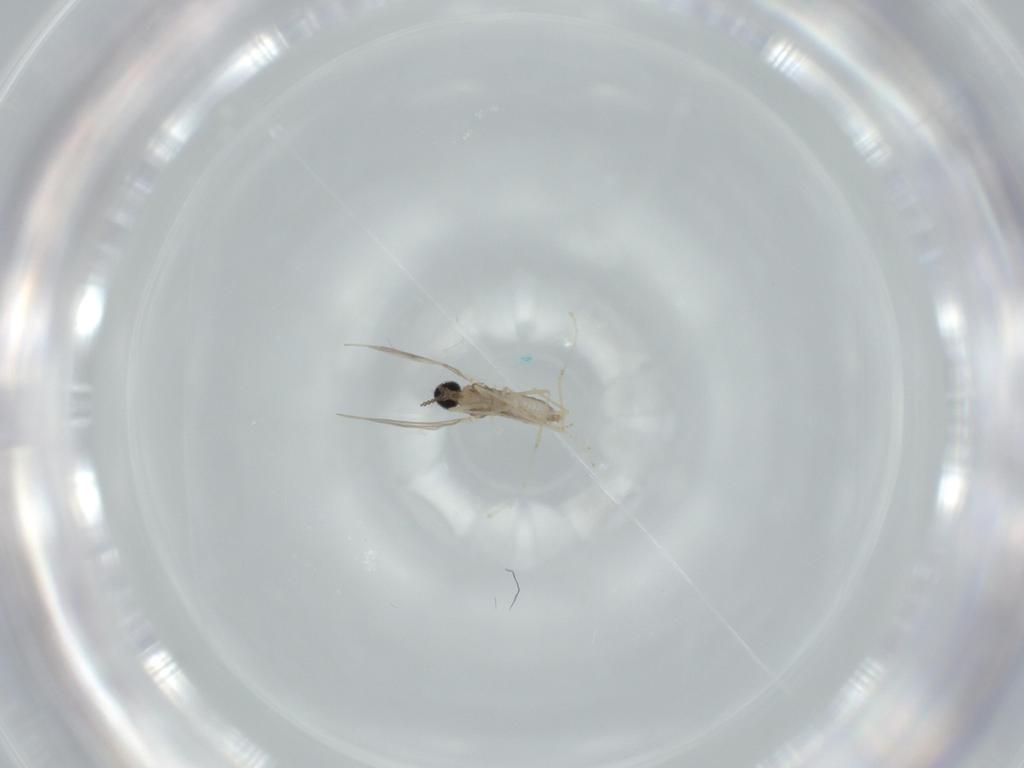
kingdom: Animalia
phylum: Arthropoda
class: Insecta
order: Diptera
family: Cecidomyiidae
